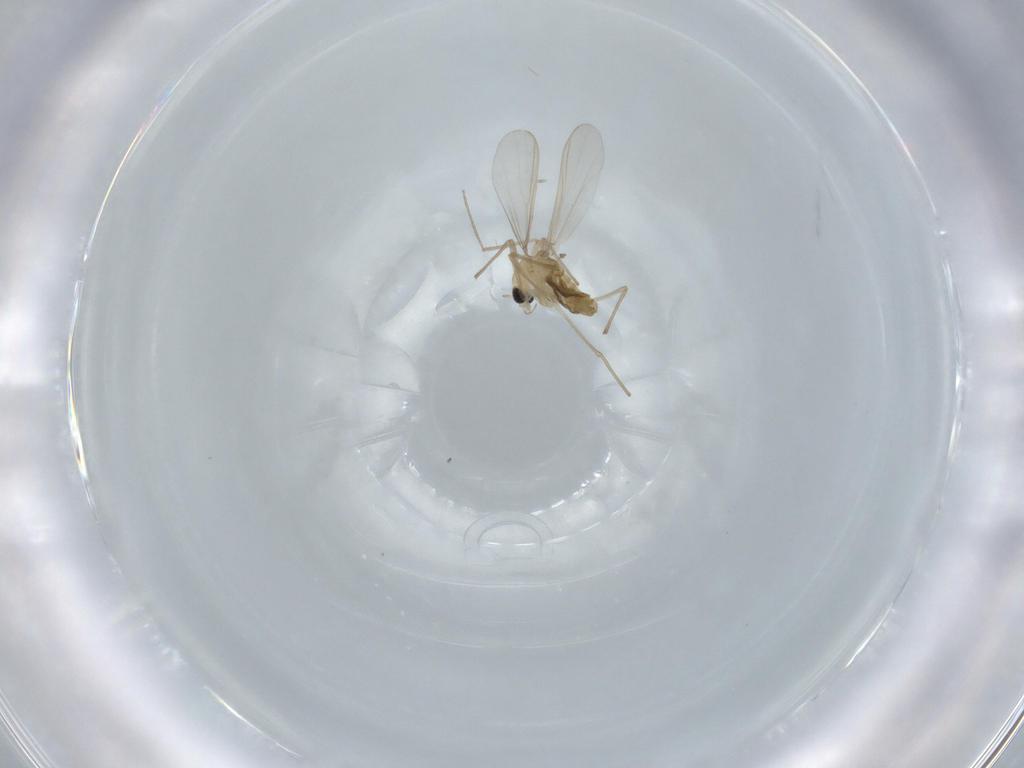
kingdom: Animalia
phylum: Arthropoda
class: Insecta
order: Diptera
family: Chironomidae
